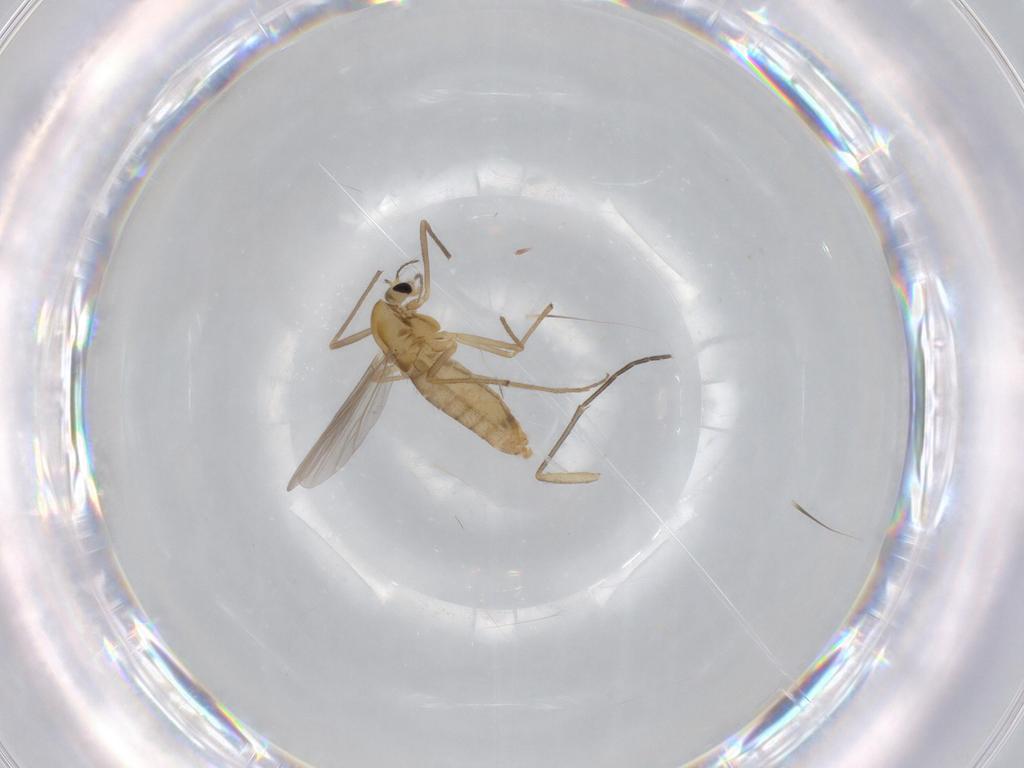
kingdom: Animalia
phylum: Arthropoda
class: Insecta
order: Diptera
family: Chironomidae
